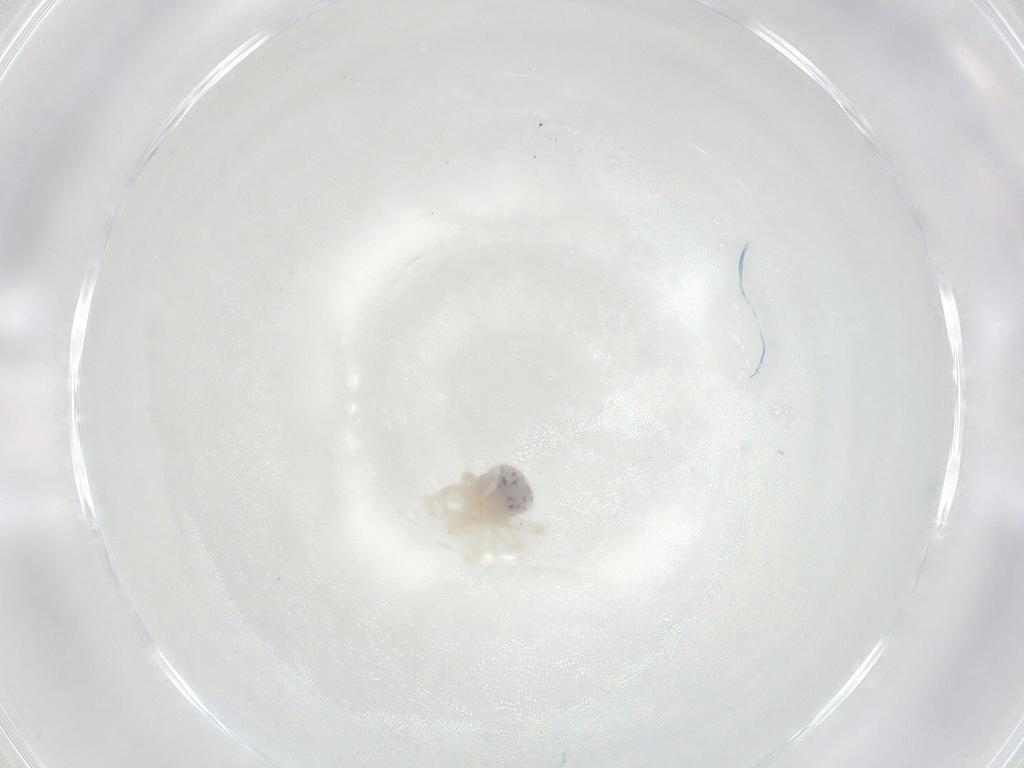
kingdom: Animalia
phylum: Arthropoda
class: Arachnida
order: Trombidiformes
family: Anystidae
